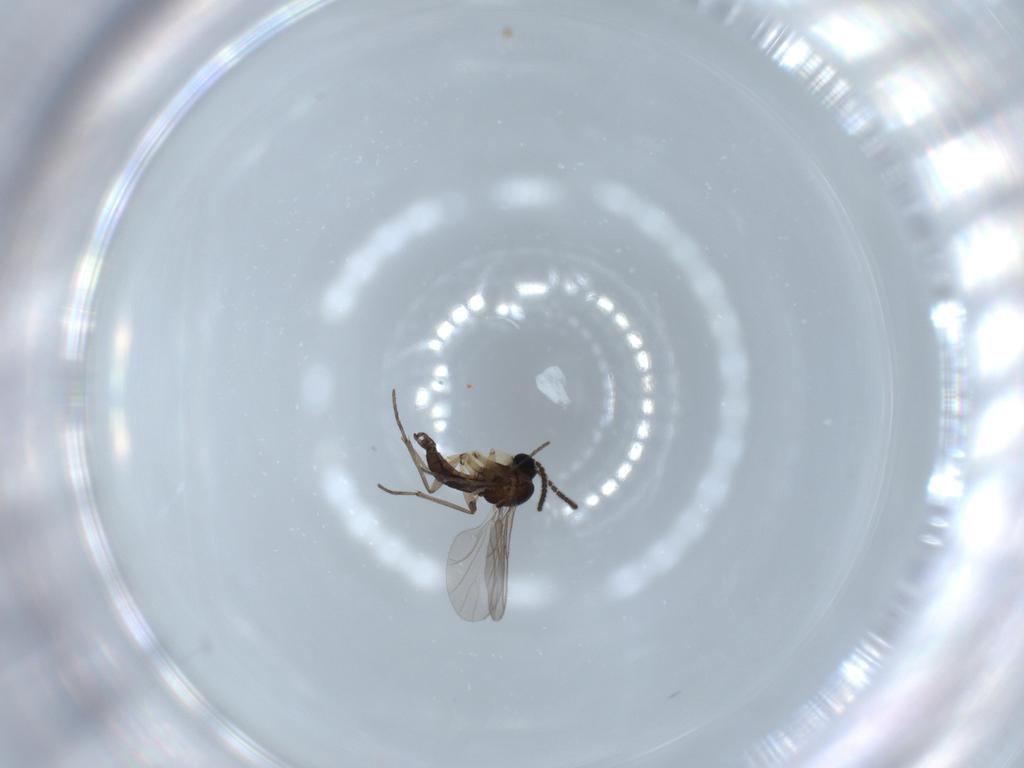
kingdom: Animalia
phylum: Arthropoda
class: Insecta
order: Diptera
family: Sciaridae
